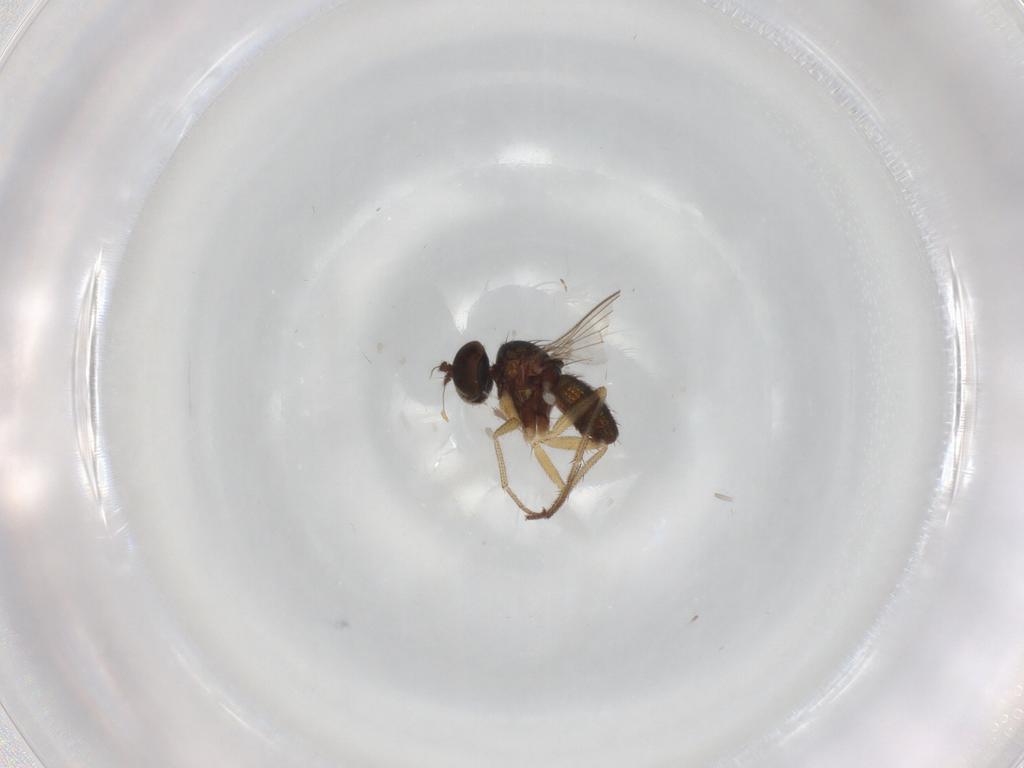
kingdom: Animalia
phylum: Arthropoda
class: Insecta
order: Diptera
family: Dolichopodidae
